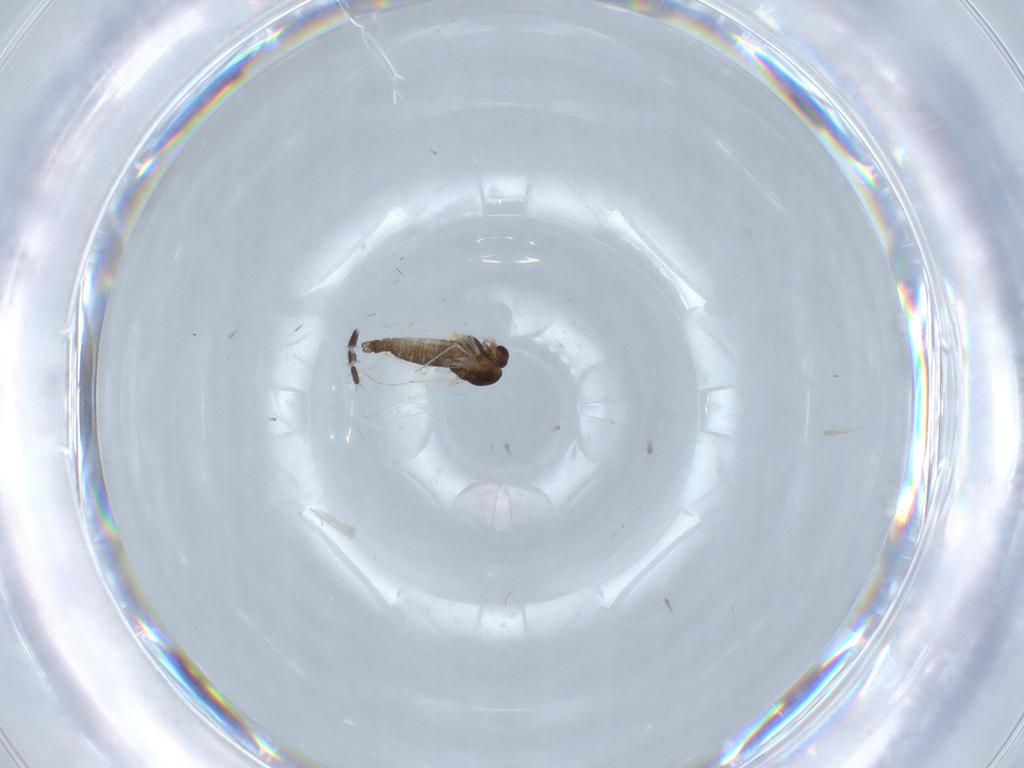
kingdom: Animalia
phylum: Arthropoda
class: Insecta
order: Diptera
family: Chironomidae
